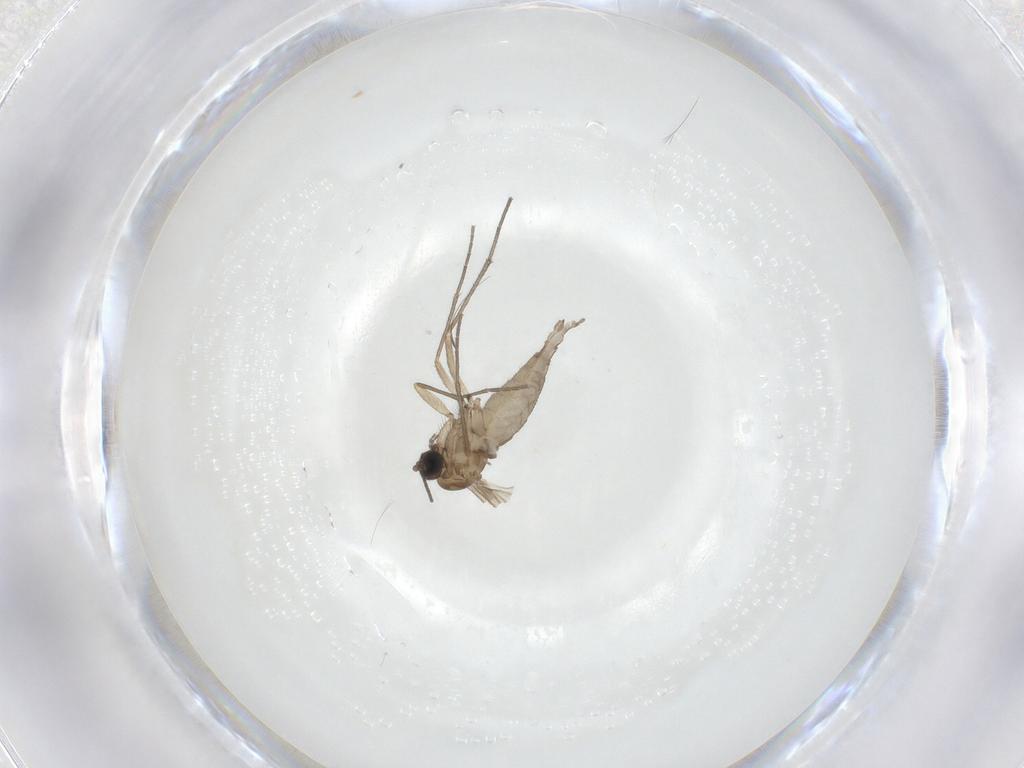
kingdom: Animalia
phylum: Arthropoda
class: Insecta
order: Diptera
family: Sciaridae
